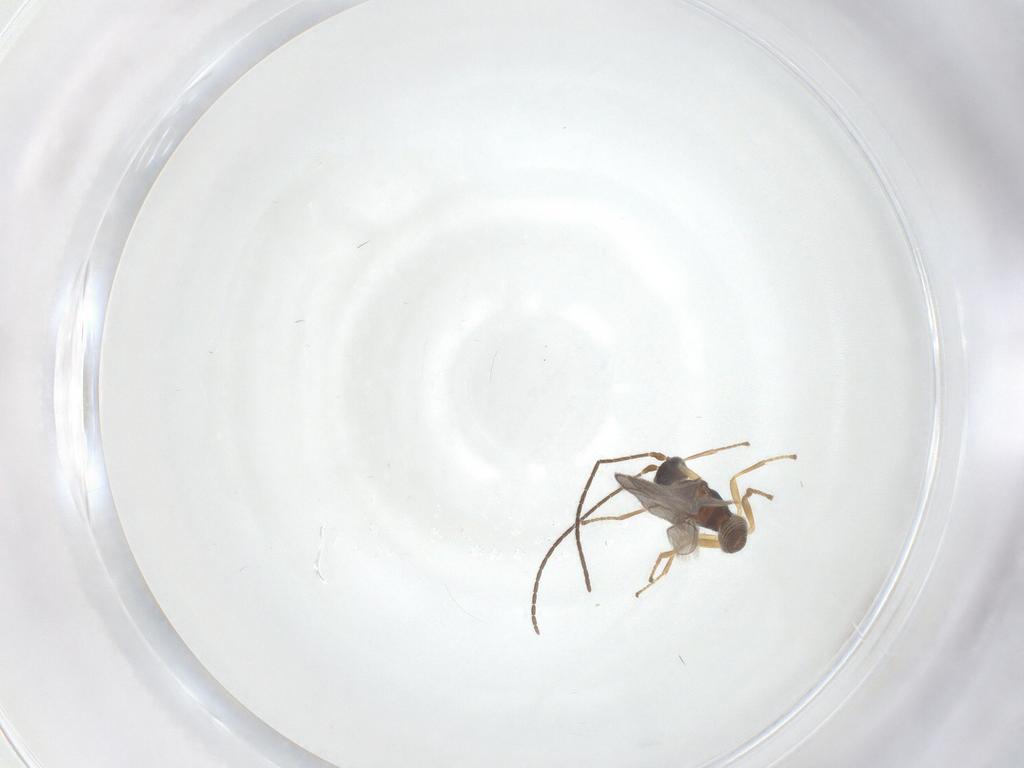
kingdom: Animalia
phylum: Arthropoda
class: Insecta
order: Hymenoptera
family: Braconidae
